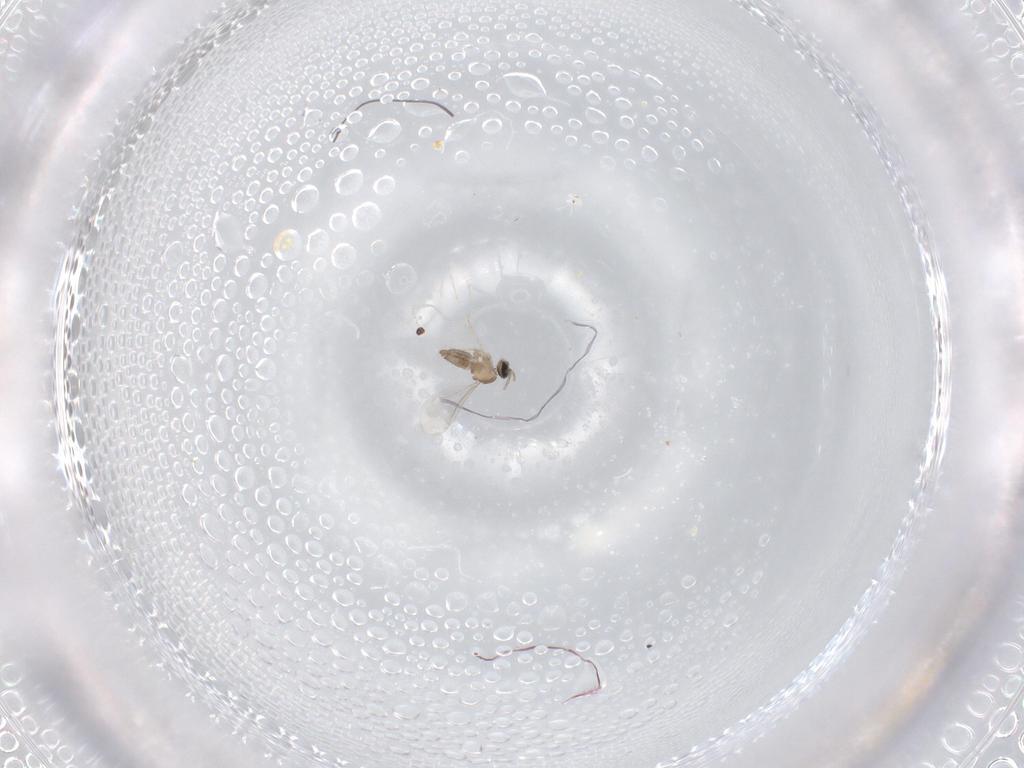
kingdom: Animalia
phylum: Arthropoda
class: Insecta
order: Diptera
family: Cecidomyiidae
